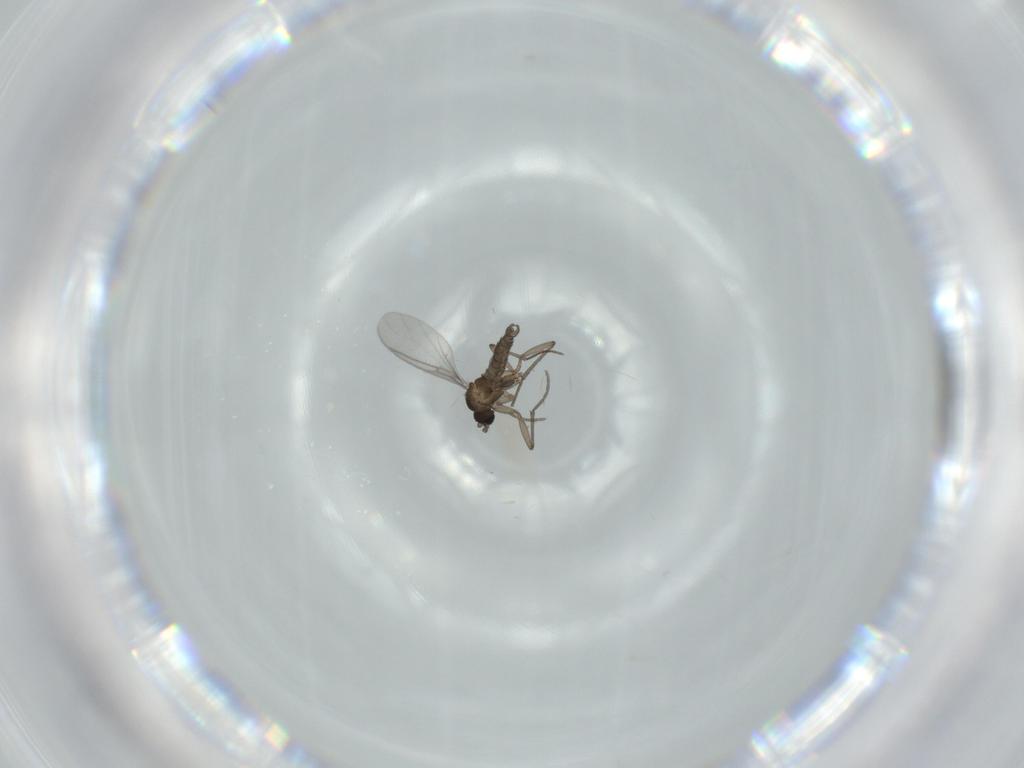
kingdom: Animalia
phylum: Arthropoda
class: Insecta
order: Diptera
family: Sciaridae
